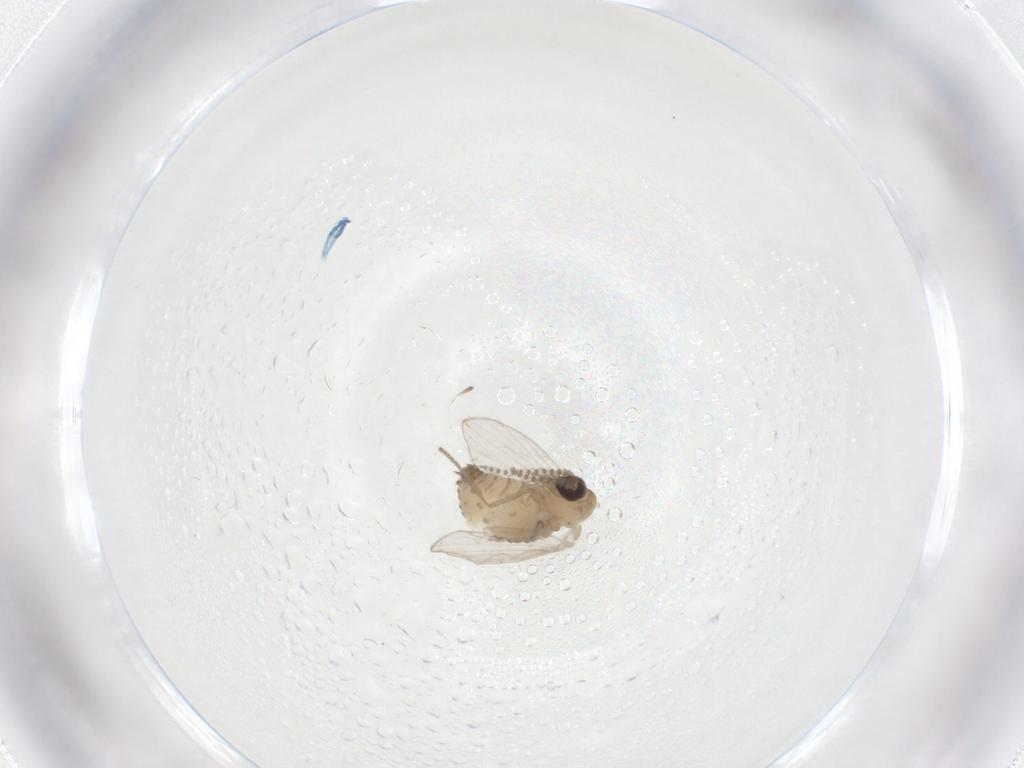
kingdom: Animalia
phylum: Arthropoda
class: Insecta
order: Diptera
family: Psychodidae
